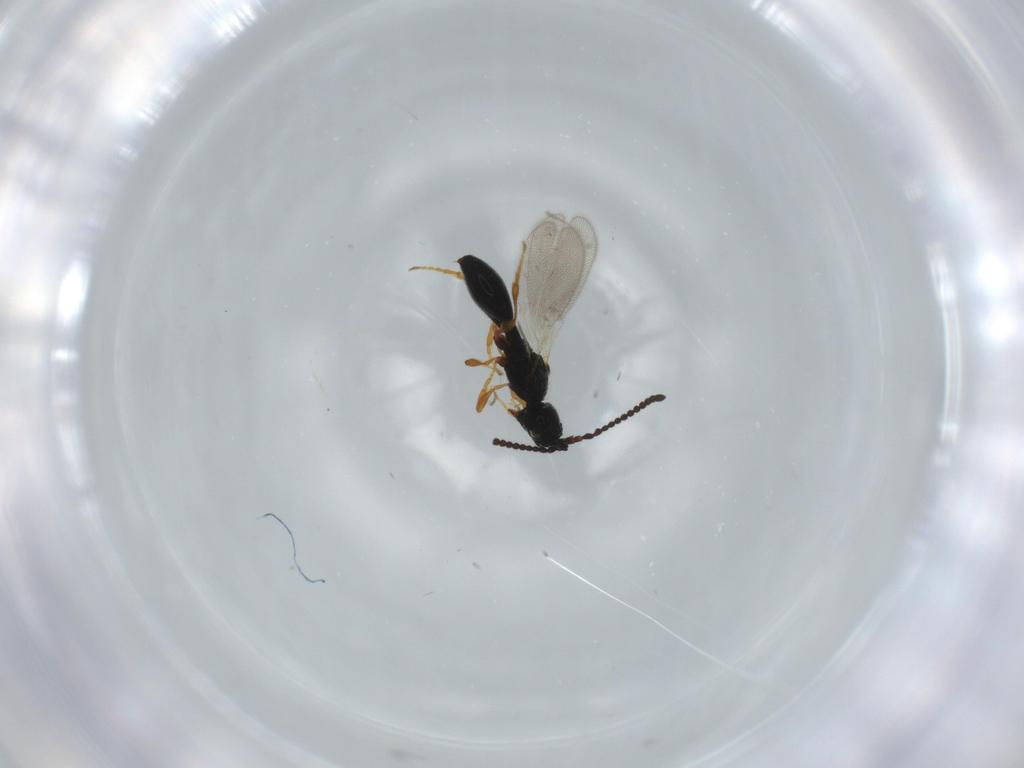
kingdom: Animalia
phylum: Arthropoda
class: Insecta
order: Hymenoptera
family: Diapriidae
